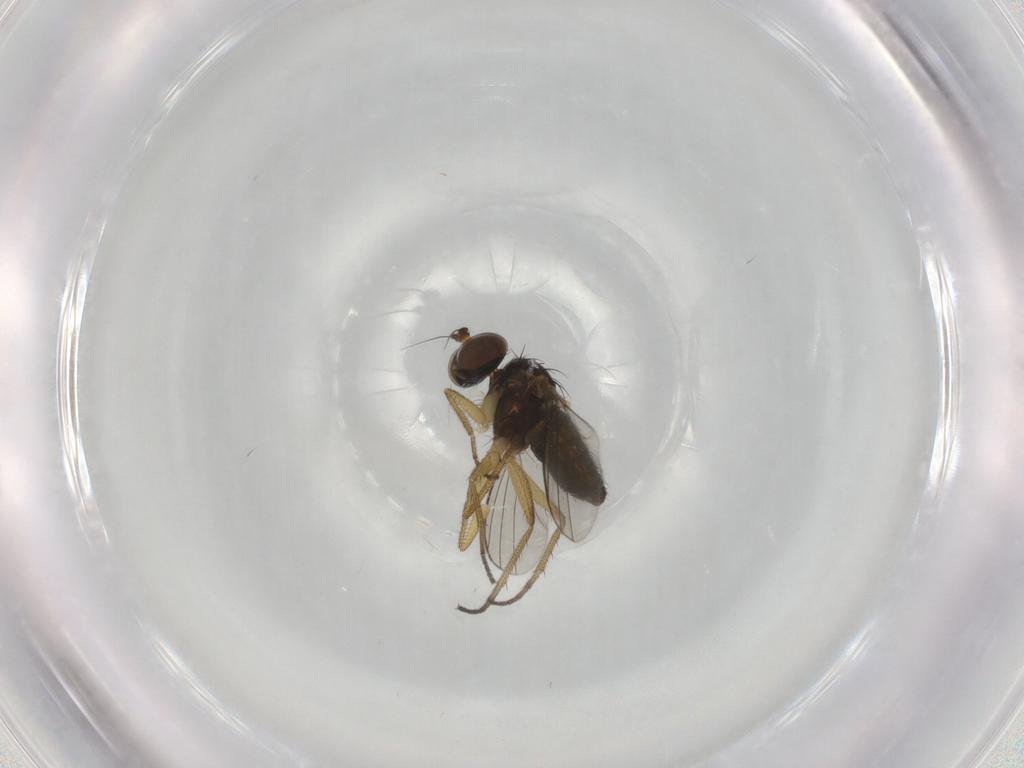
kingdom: Animalia
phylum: Arthropoda
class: Insecta
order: Diptera
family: Dolichopodidae
